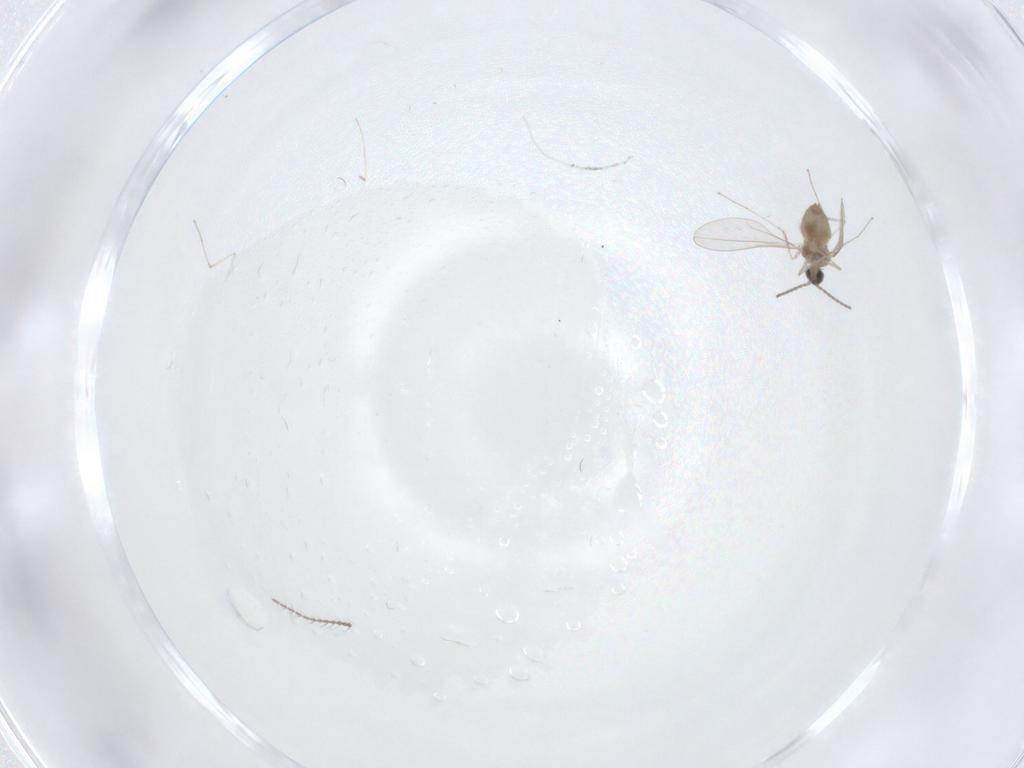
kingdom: Animalia
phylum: Arthropoda
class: Insecta
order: Diptera
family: Cecidomyiidae
